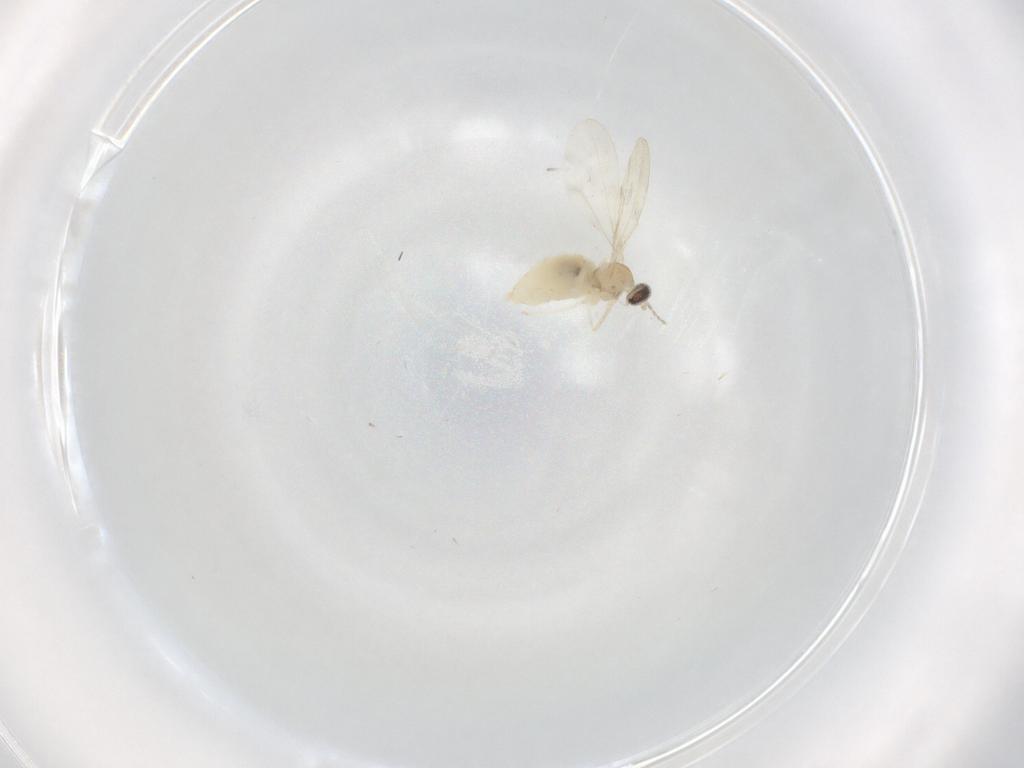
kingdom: Animalia
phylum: Arthropoda
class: Insecta
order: Diptera
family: Cecidomyiidae
